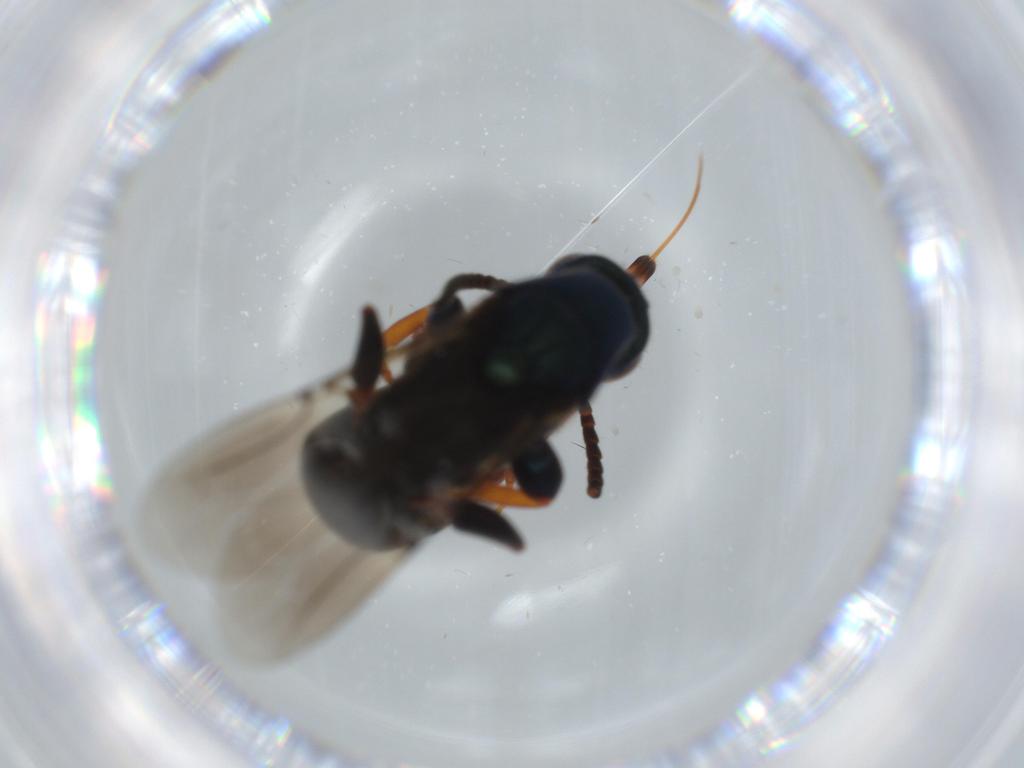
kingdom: Animalia
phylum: Arthropoda
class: Insecta
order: Hymenoptera
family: Bethylidae
